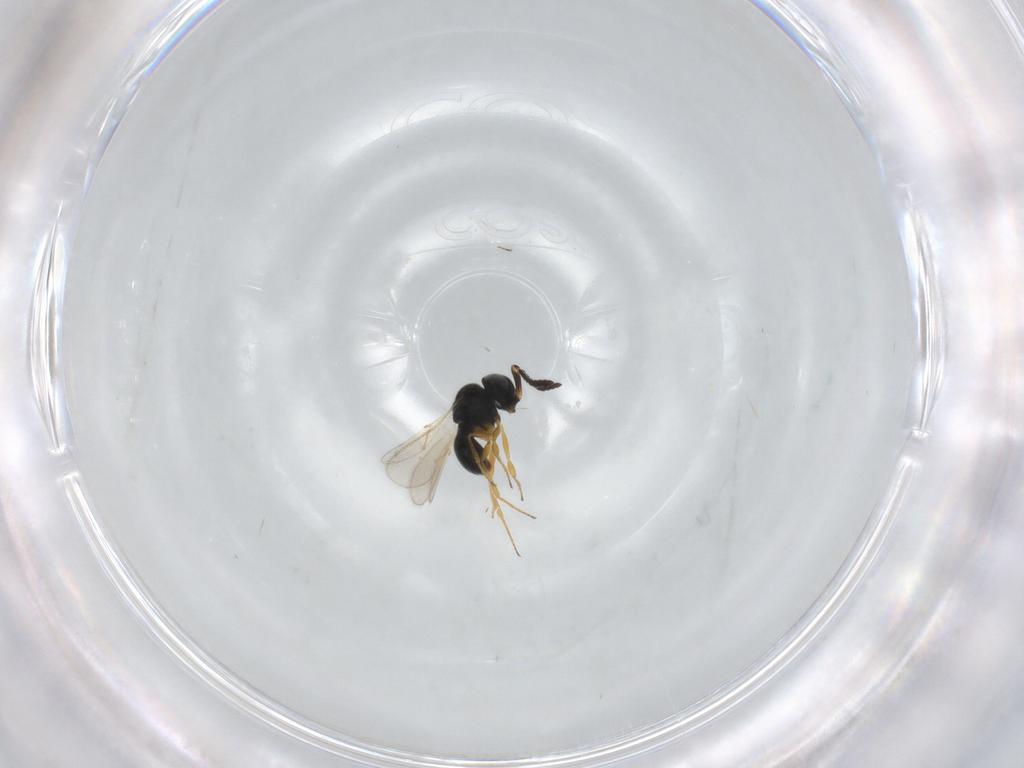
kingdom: Animalia
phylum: Arthropoda
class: Insecta
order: Hymenoptera
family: Scelionidae
